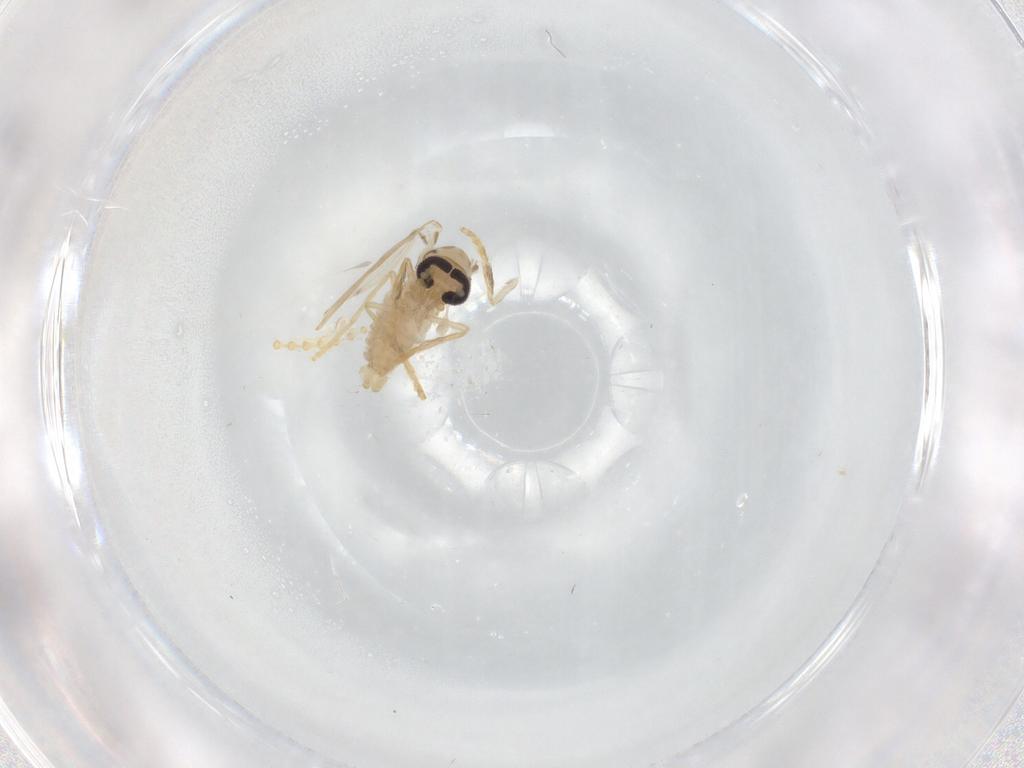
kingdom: Animalia
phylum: Arthropoda
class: Insecta
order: Diptera
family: Psychodidae
